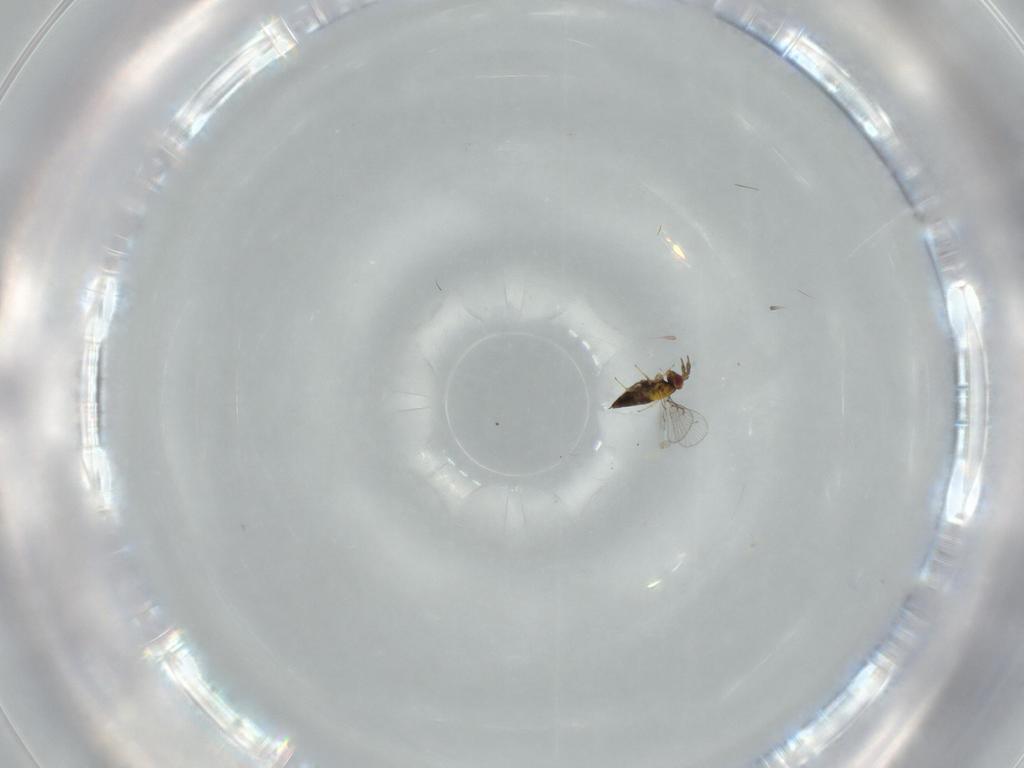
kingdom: Animalia
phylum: Arthropoda
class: Insecta
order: Hymenoptera
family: Trichogrammatidae
